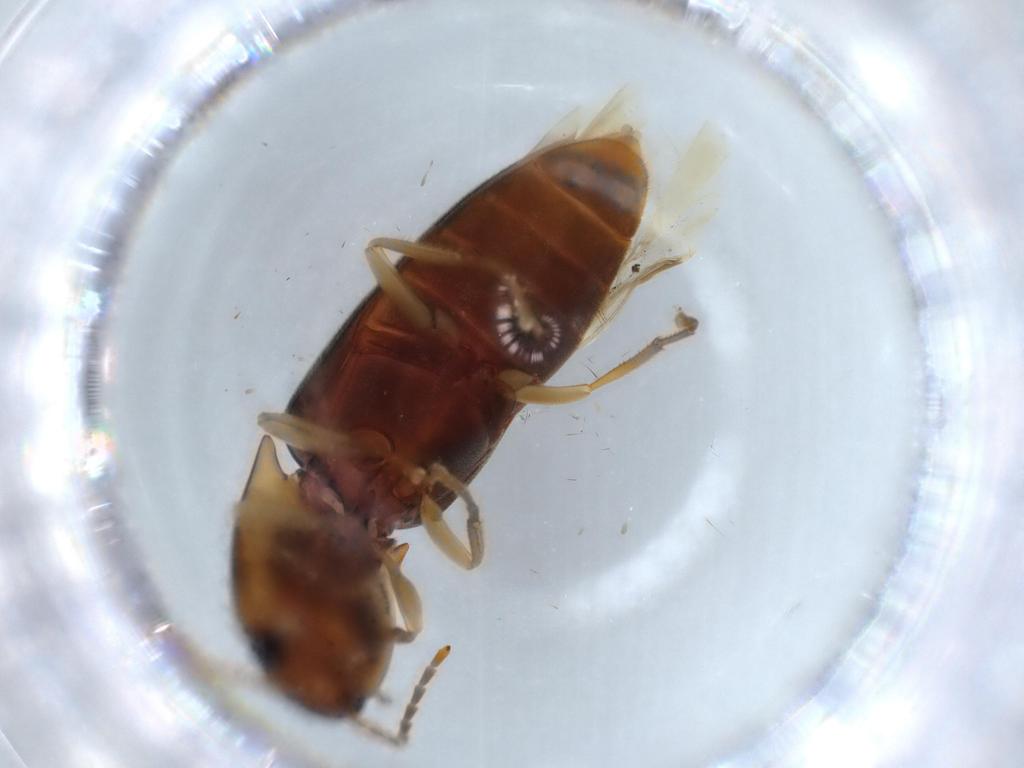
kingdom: Animalia
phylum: Arthropoda
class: Insecta
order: Coleoptera
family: Curculionidae
